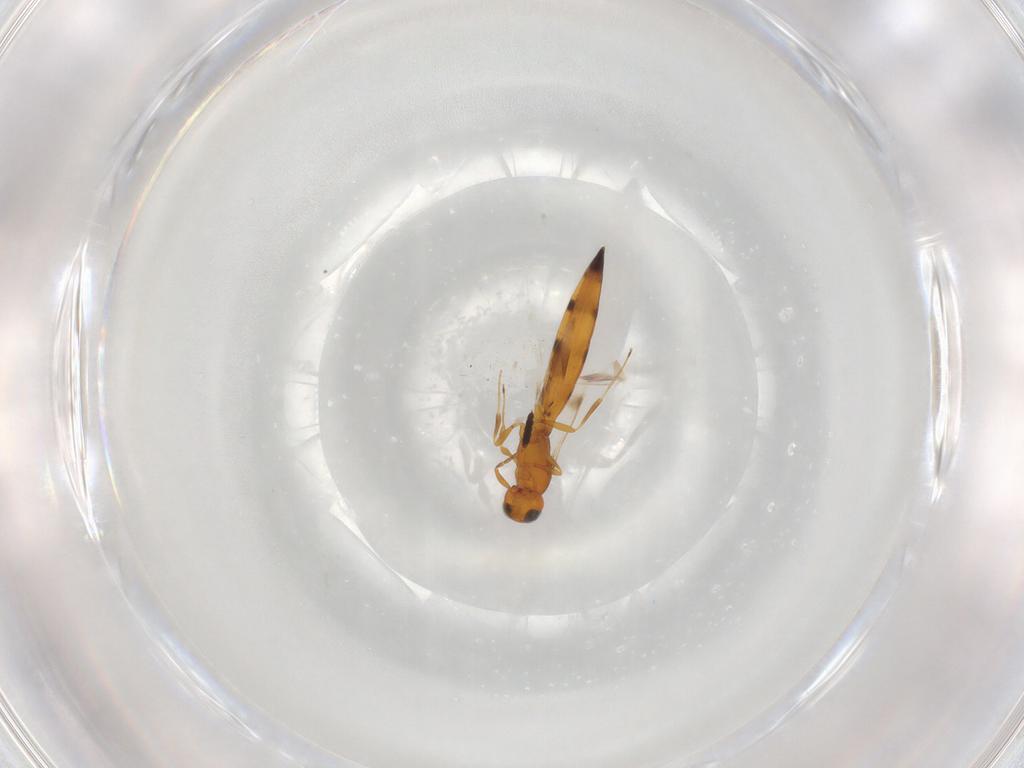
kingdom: Animalia
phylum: Arthropoda
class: Insecta
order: Hymenoptera
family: Scelionidae
